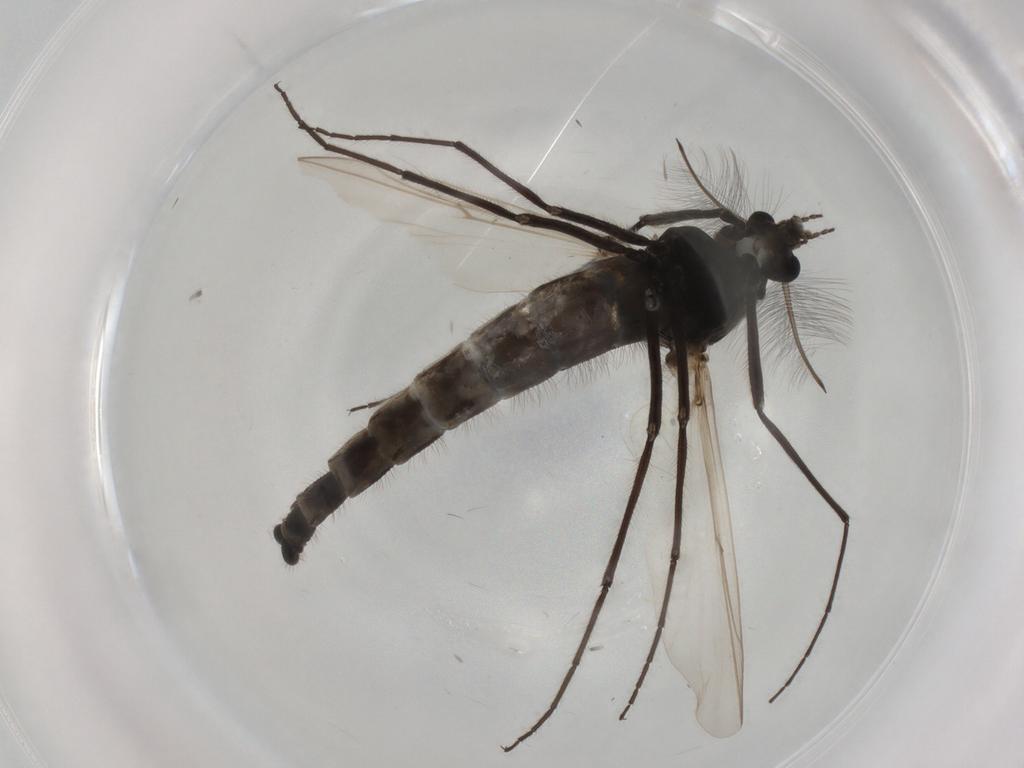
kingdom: Animalia
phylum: Arthropoda
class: Insecta
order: Diptera
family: Chironomidae
